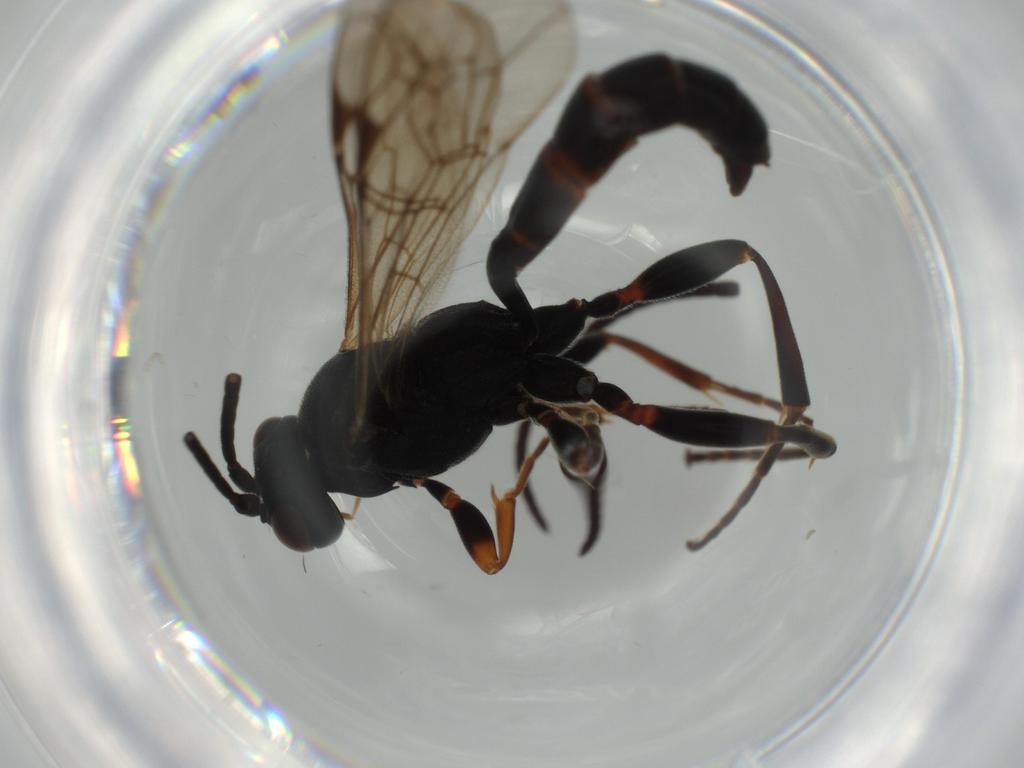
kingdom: Animalia
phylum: Arthropoda
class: Insecta
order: Hymenoptera
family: Ichneumonidae
